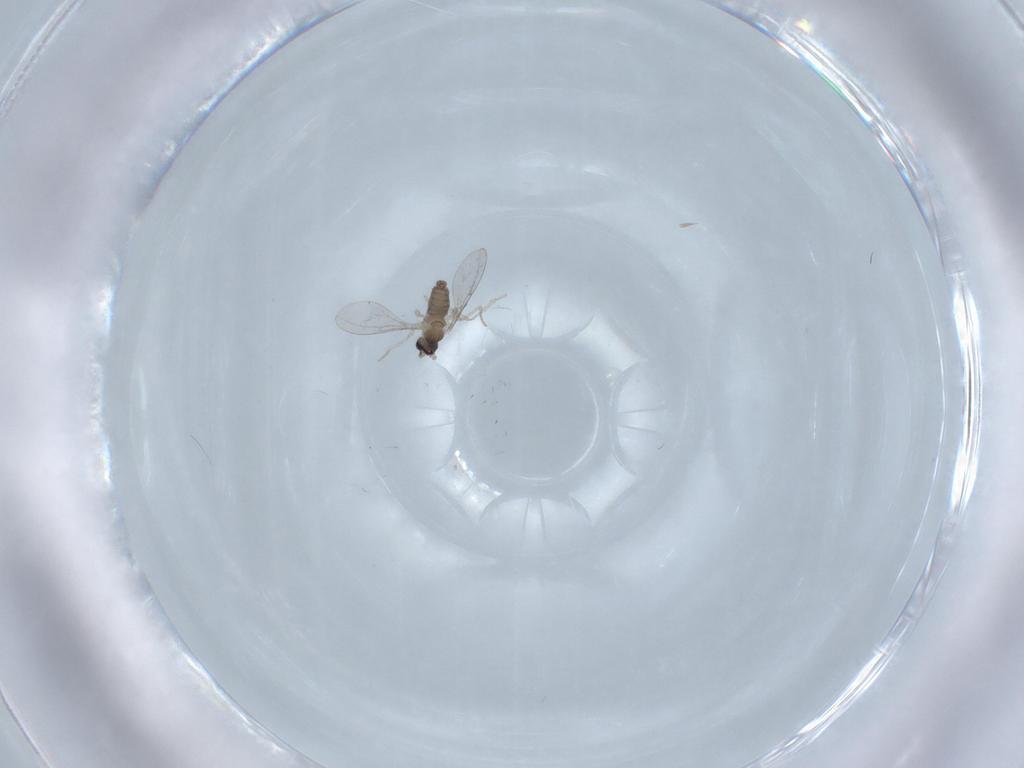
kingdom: Animalia
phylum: Arthropoda
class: Insecta
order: Diptera
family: Cecidomyiidae
